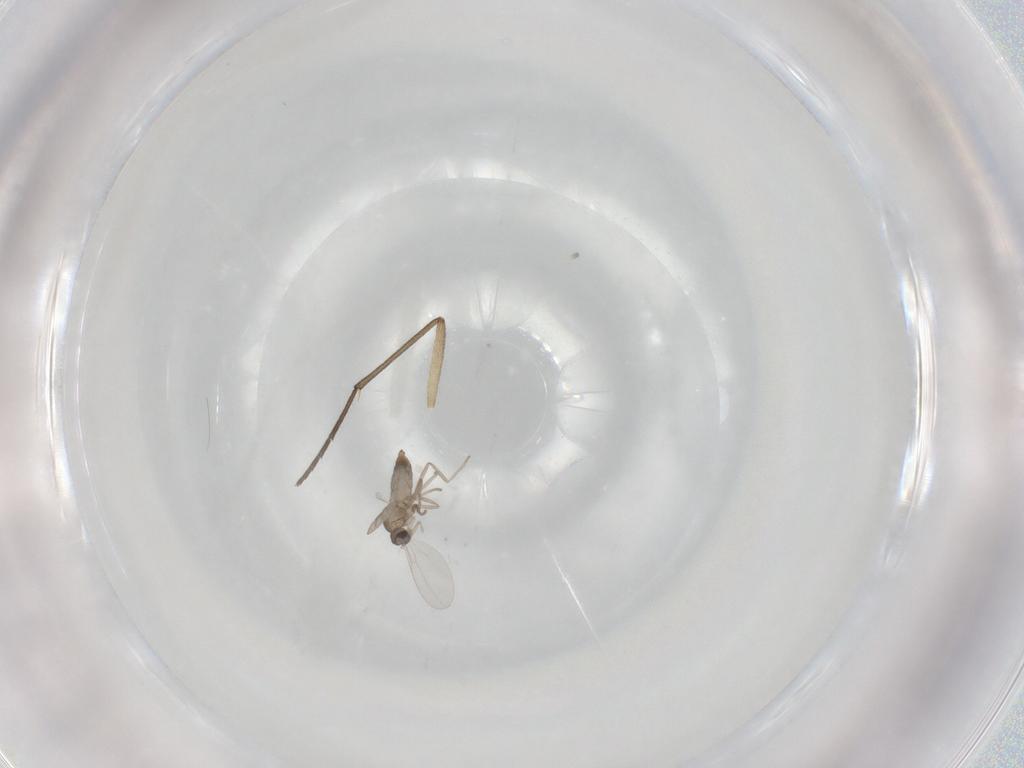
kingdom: Animalia
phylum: Arthropoda
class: Insecta
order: Diptera
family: Cecidomyiidae
